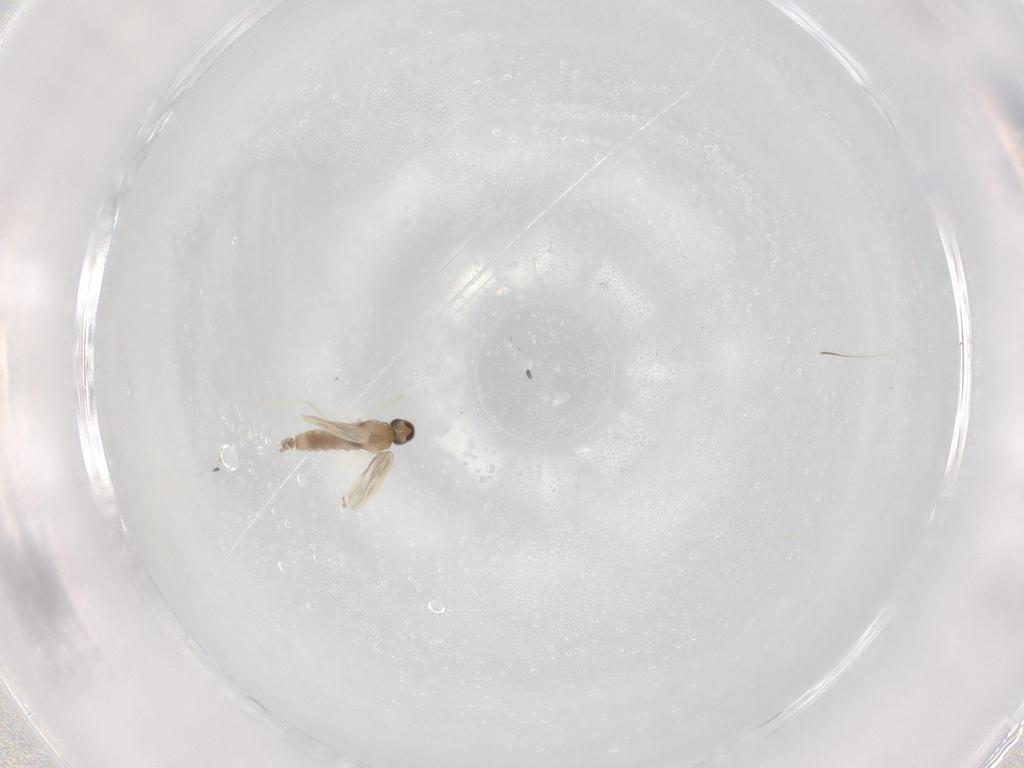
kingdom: Animalia
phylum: Arthropoda
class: Insecta
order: Diptera
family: Cecidomyiidae
